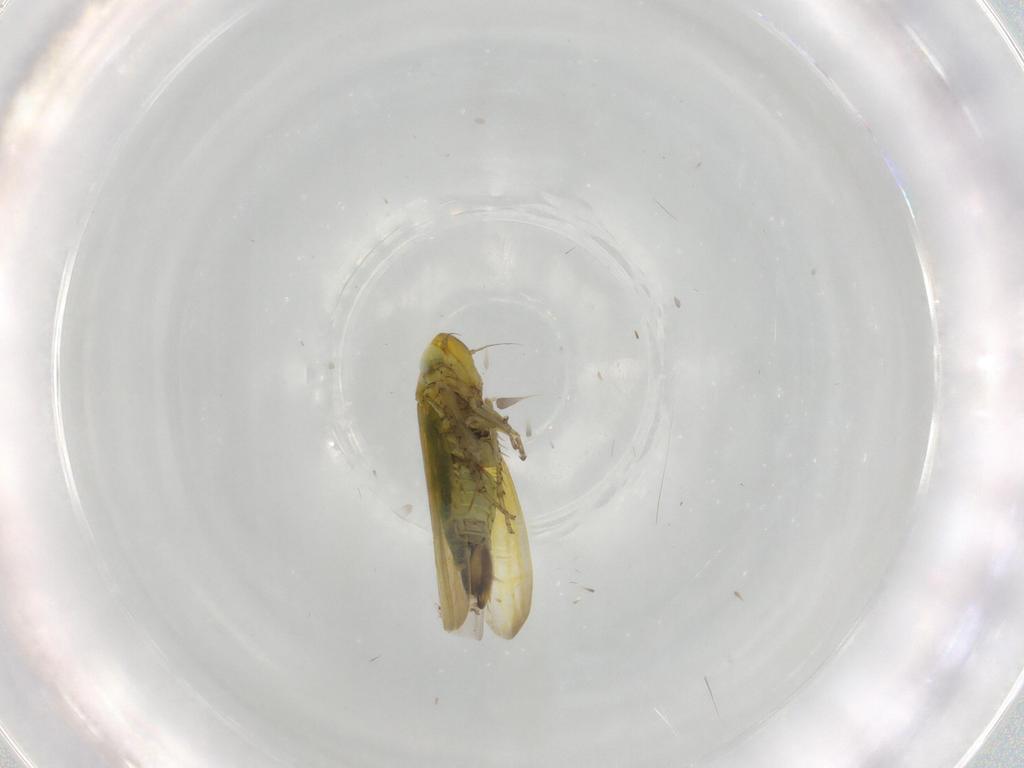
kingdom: Animalia
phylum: Arthropoda
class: Insecta
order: Hemiptera
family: Cicadellidae
